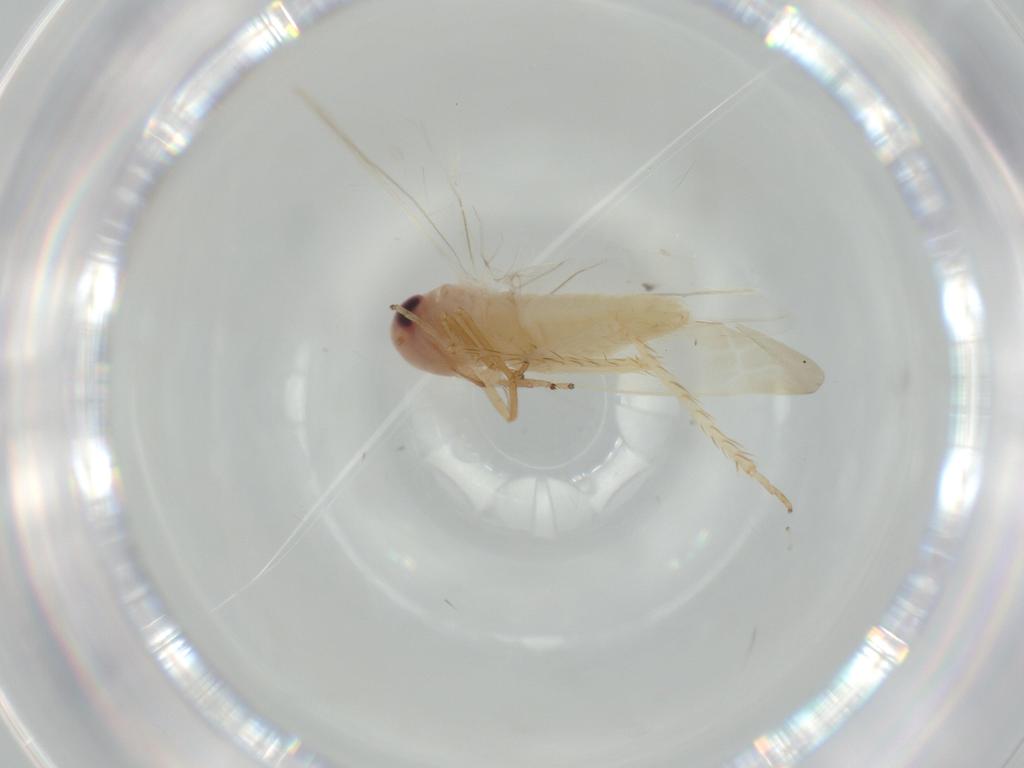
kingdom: Animalia
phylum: Arthropoda
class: Insecta
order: Hemiptera
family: Cicadellidae
